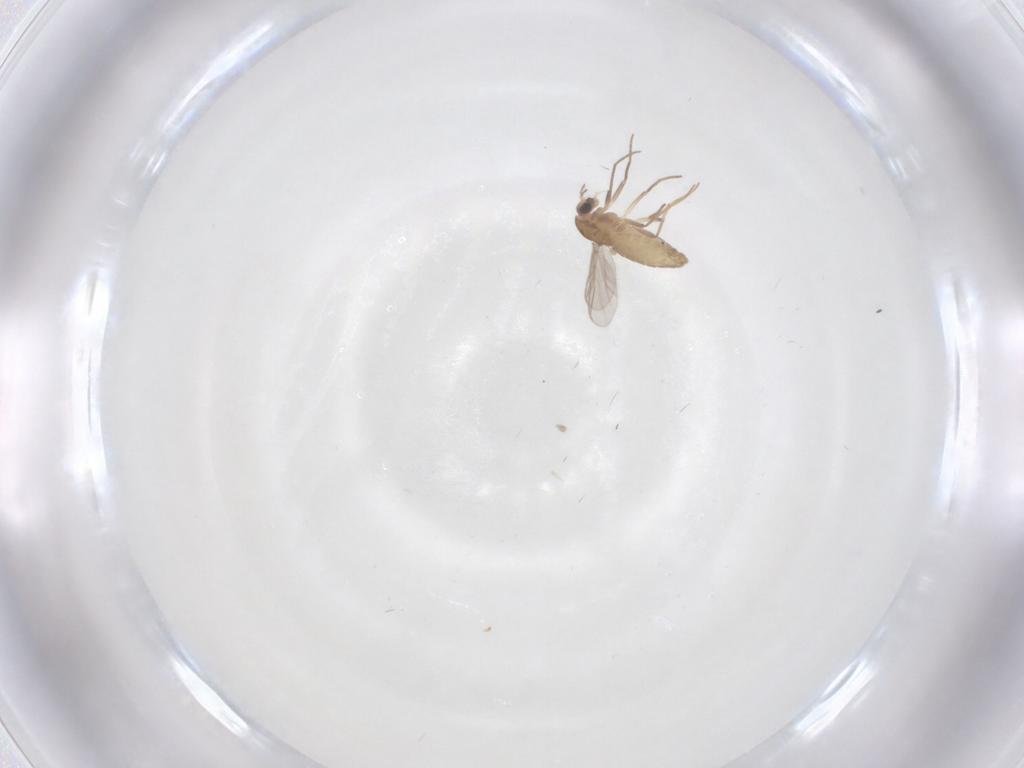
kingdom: Animalia
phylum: Arthropoda
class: Insecta
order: Diptera
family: Chironomidae
